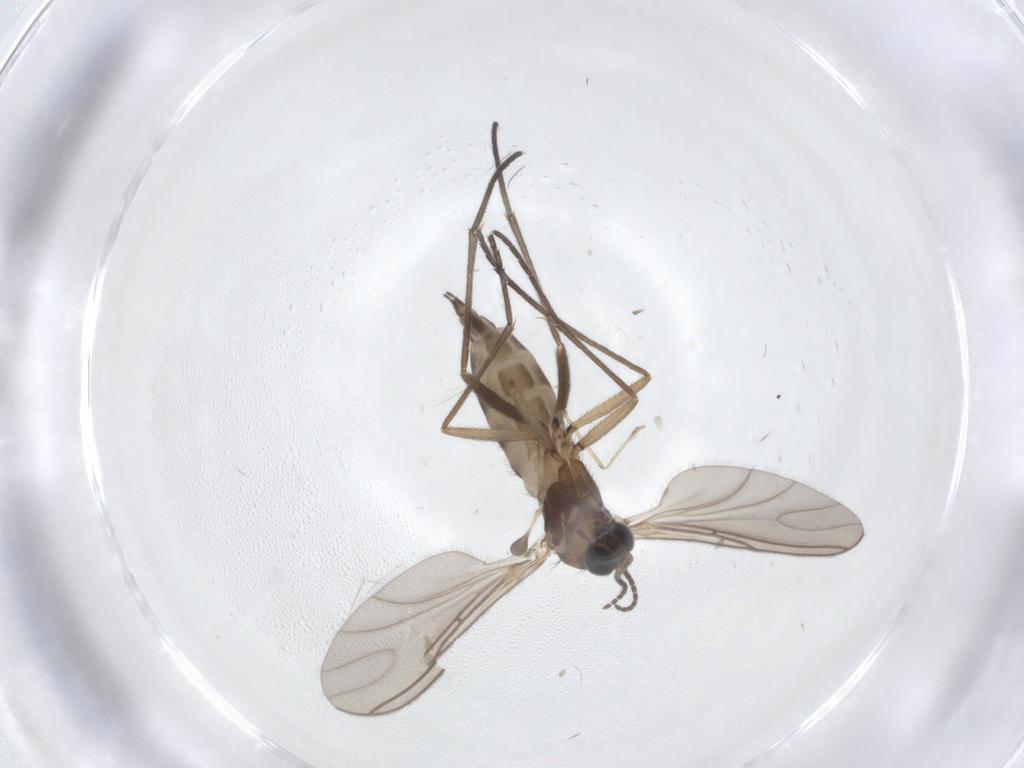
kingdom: Animalia
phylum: Arthropoda
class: Insecta
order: Diptera
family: Sciaridae
